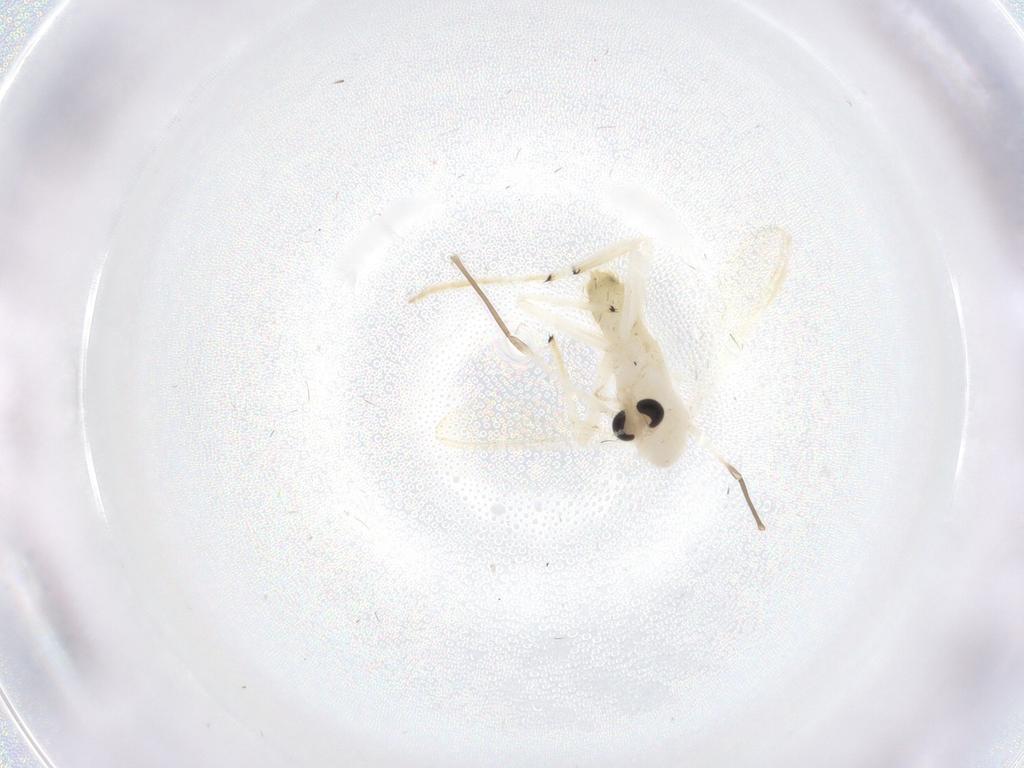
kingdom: Animalia
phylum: Arthropoda
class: Insecta
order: Diptera
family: Chironomidae
